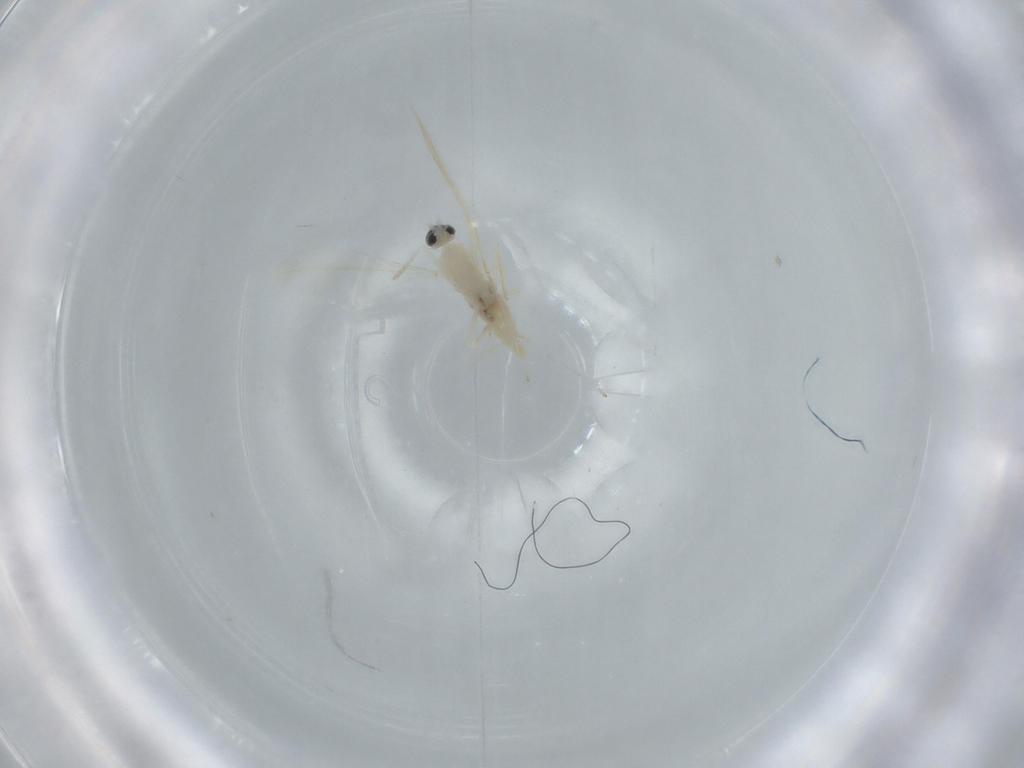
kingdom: Animalia
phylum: Arthropoda
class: Insecta
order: Diptera
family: Cecidomyiidae
